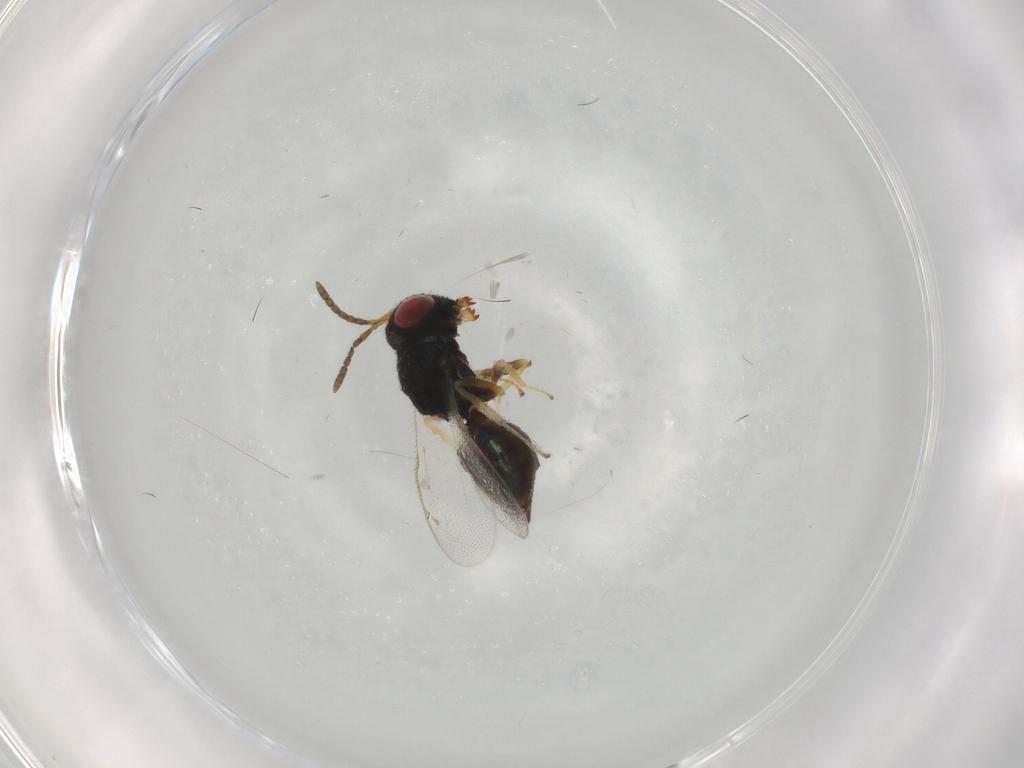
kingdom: Animalia
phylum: Arthropoda
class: Insecta
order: Hymenoptera
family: Eupelmidae
